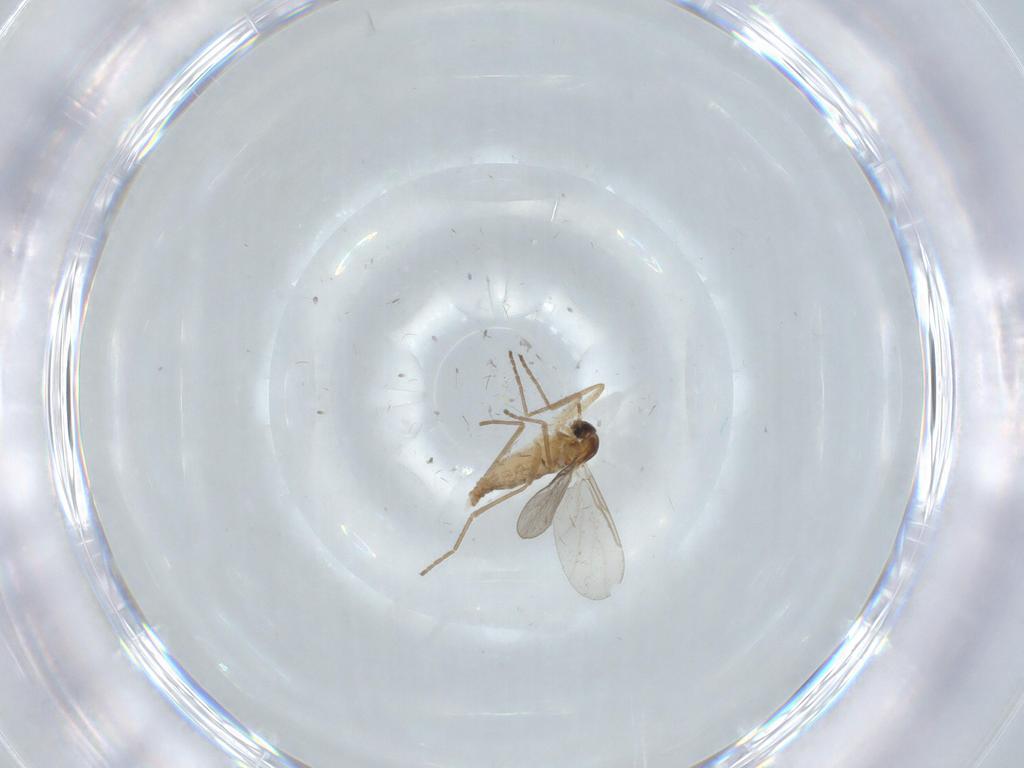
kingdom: Animalia
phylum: Arthropoda
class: Insecta
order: Diptera
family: Cecidomyiidae
